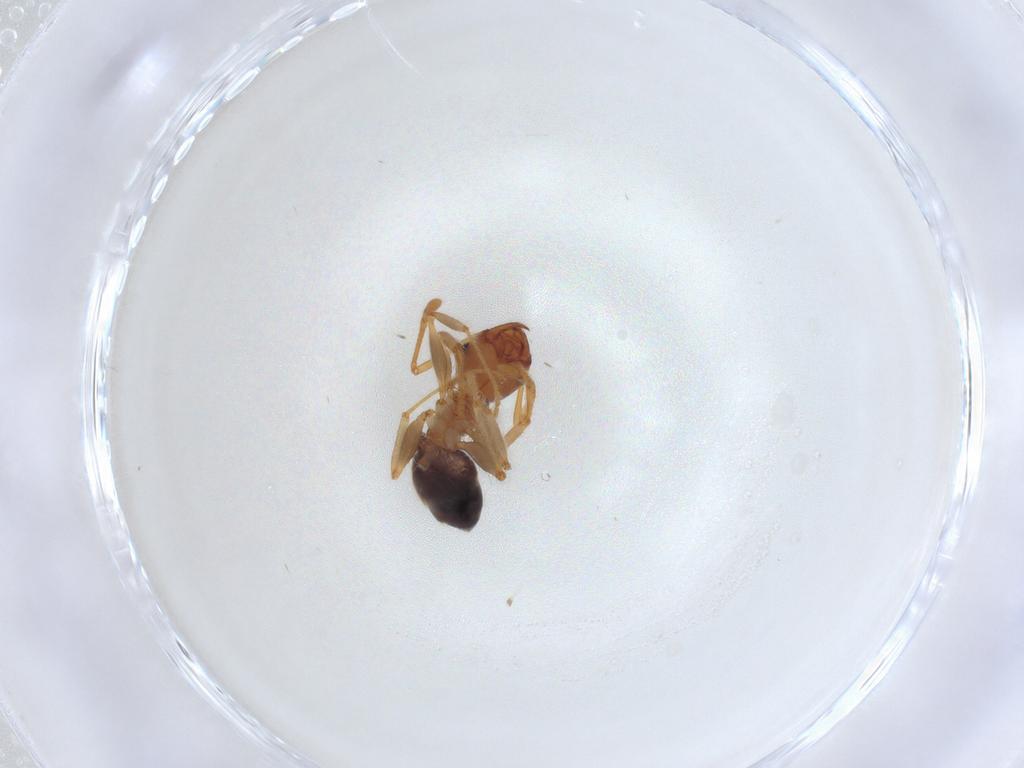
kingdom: Animalia
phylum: Arthropoda
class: Insecta
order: Hymenoptera
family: Formicidae
